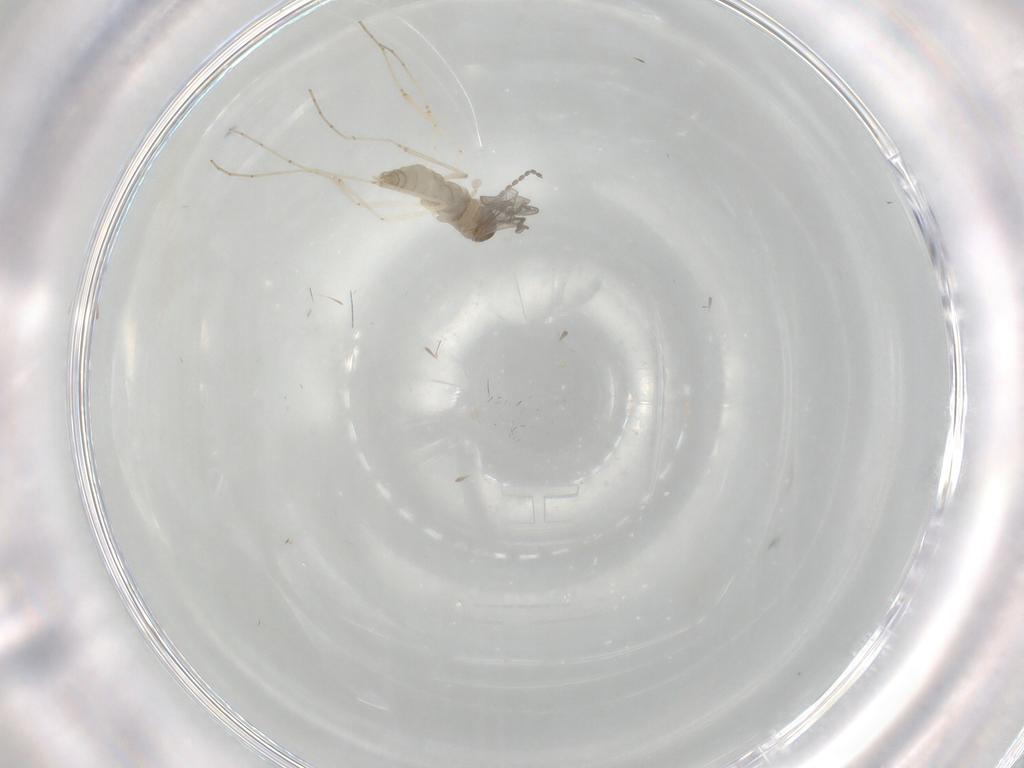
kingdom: Animalia
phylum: Arthropoda
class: Insecta
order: Diptera
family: Cecidomyiidae
